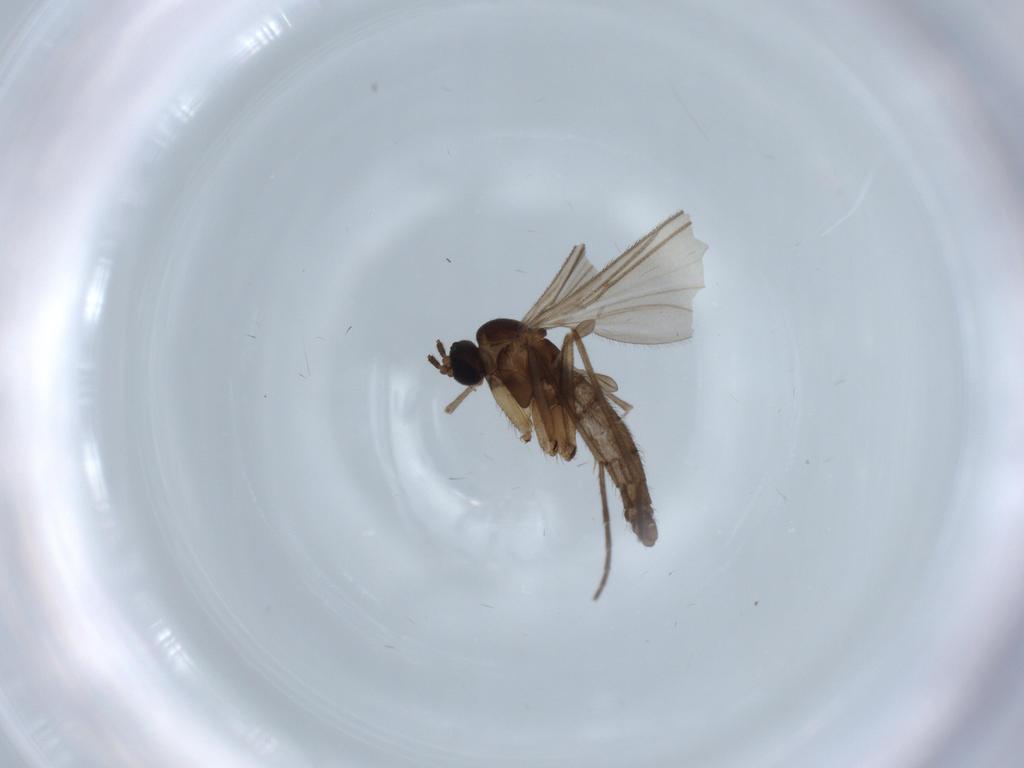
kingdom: Animalia
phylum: Arthropoda
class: Insecta
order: Diptera
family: Sciaridae
